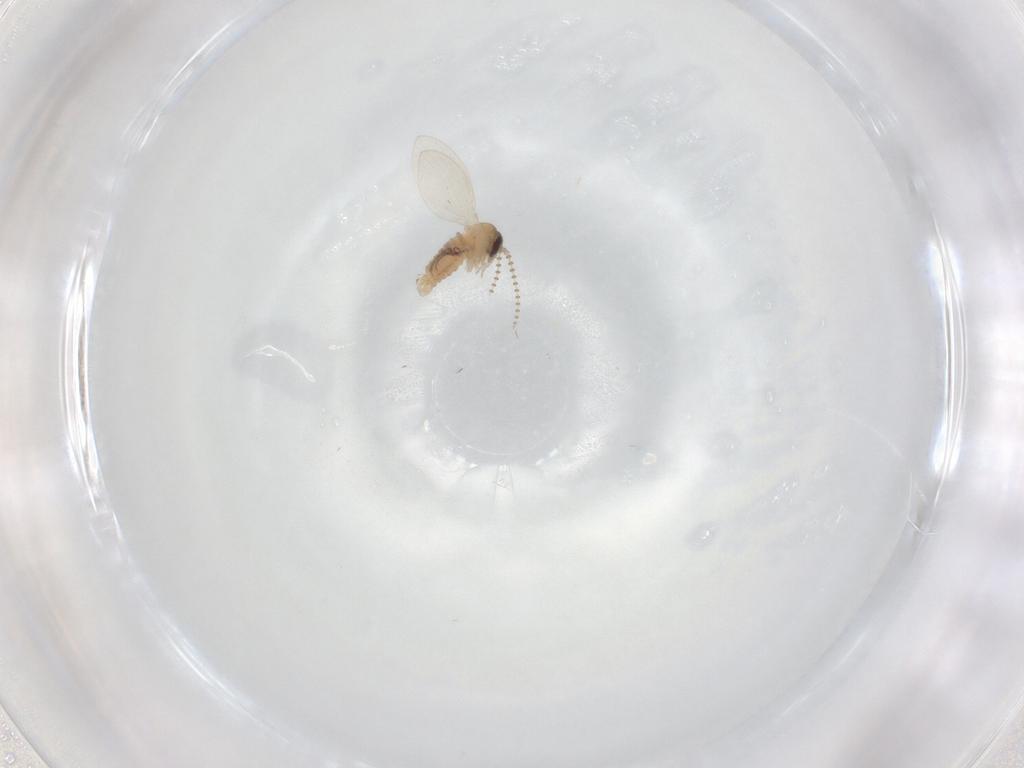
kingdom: Animalia
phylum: Arthropoda
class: Insecta
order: Diptera
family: Psychodidae
